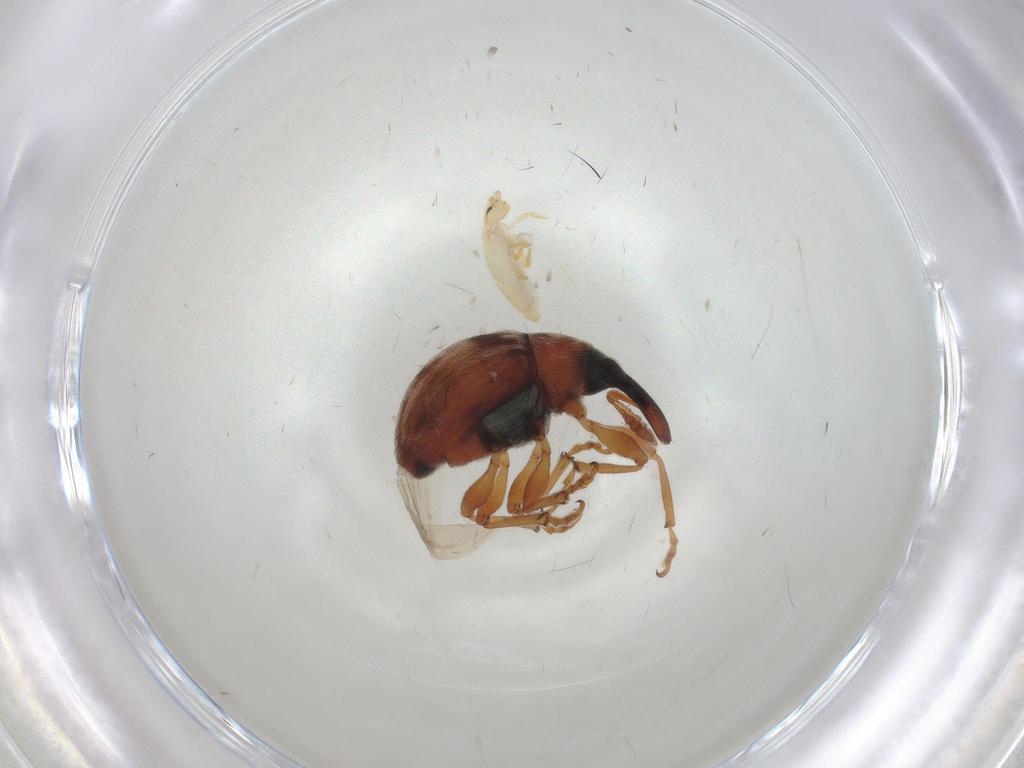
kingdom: Animalia
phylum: Arthropoda
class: Insecta
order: Coleoptera
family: Brentidae
